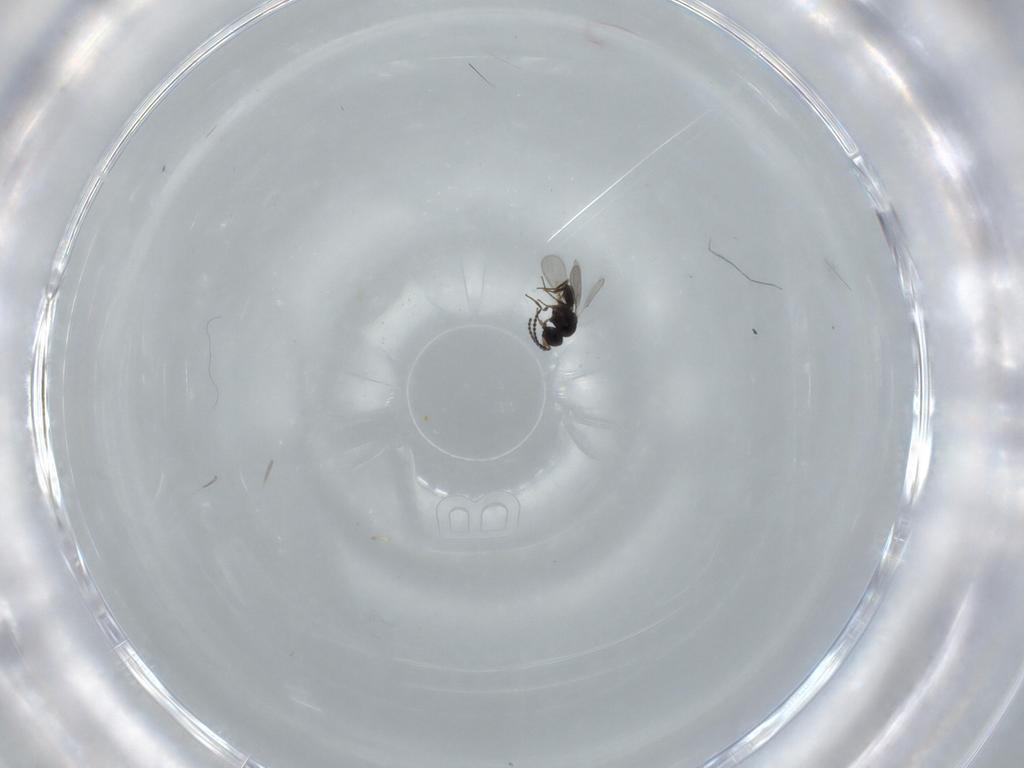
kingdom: Animalia
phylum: Arthropoda
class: Insecta
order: Hymenoptera
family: Scelionidae
